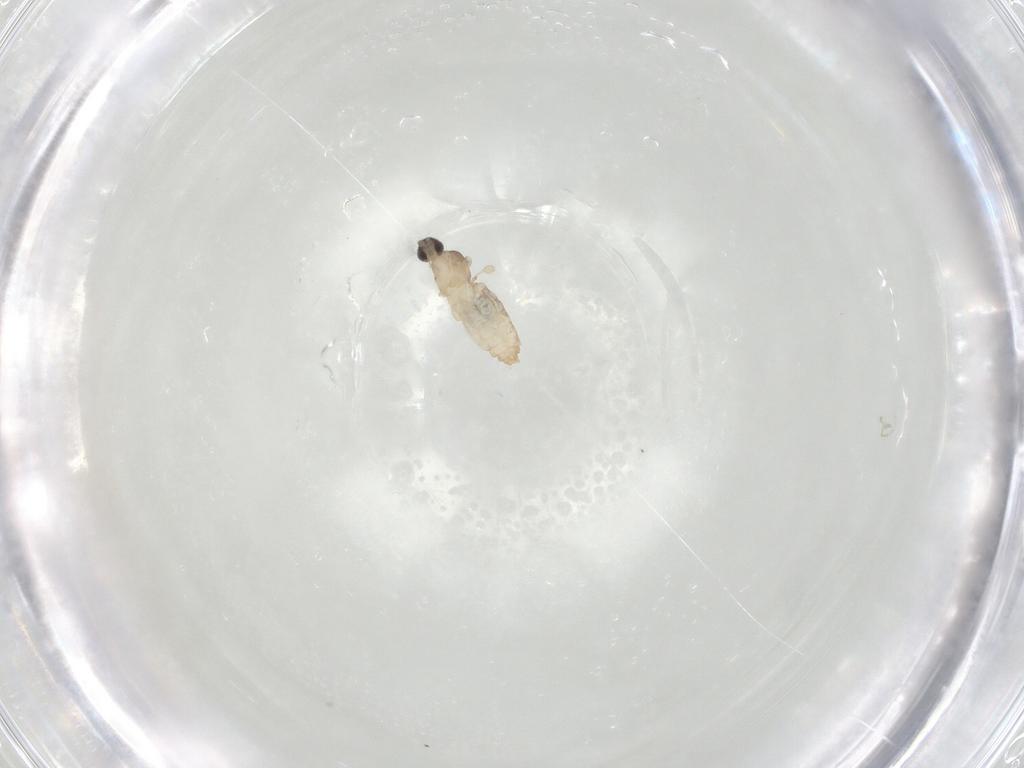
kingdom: Animalia
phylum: Arthropoda
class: Insecta
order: Diptera
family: Limoniidae
